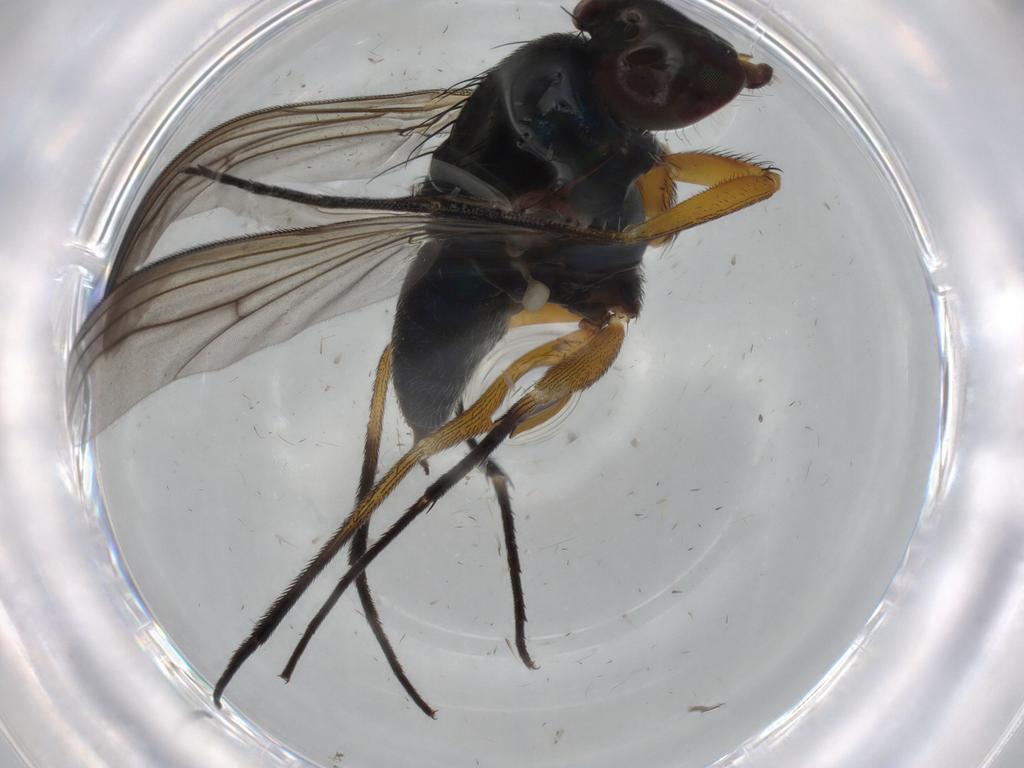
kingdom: Animalia
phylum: Arthropoda
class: Insecta
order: Diptera
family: Dolichopodidae
